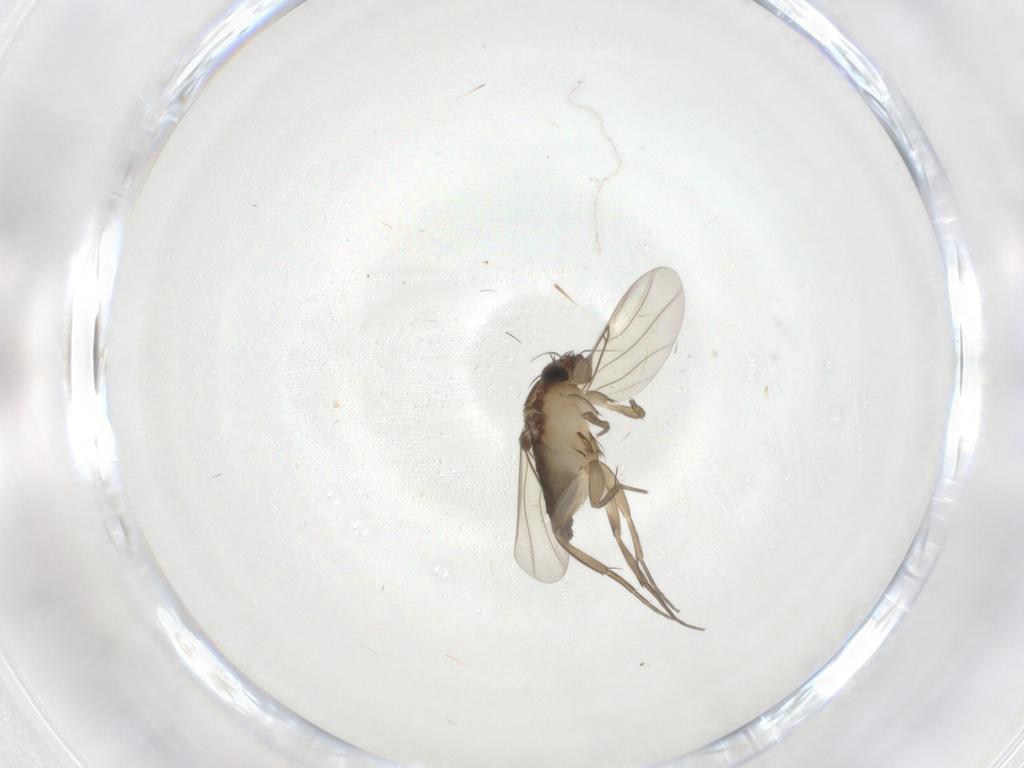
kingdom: Animalia
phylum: Arthropoda
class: Insecta
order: Diptera
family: Phoridae
